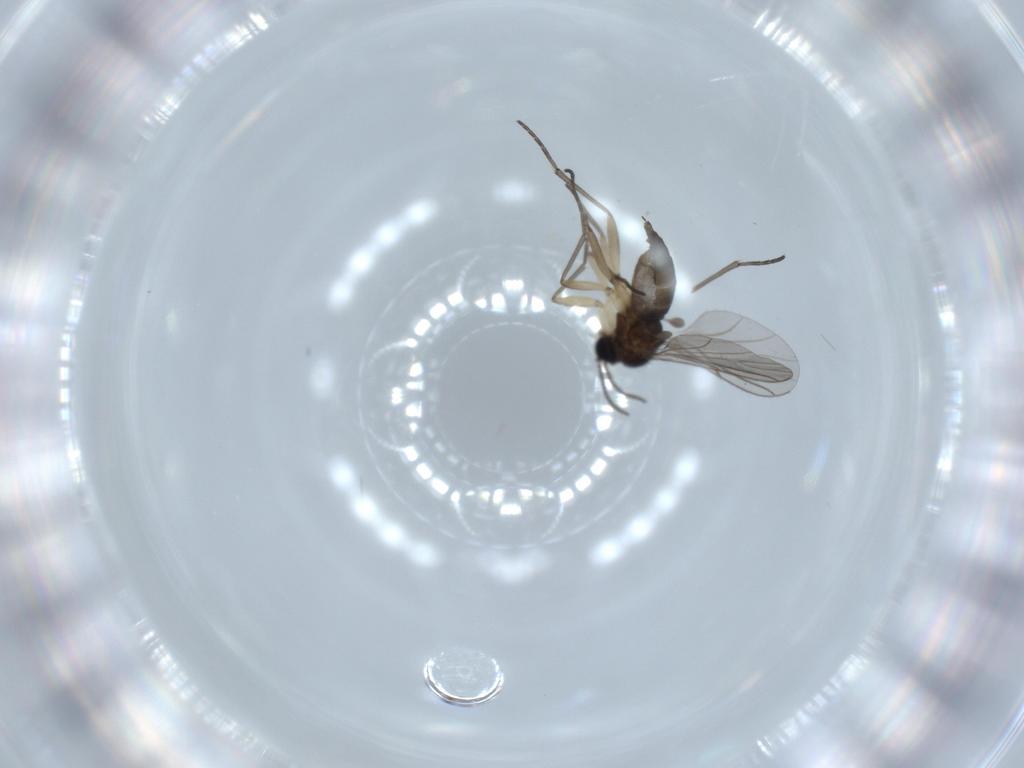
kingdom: Animalia
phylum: Arthropoda
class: Insecta
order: Diptera
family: Sciaridae
